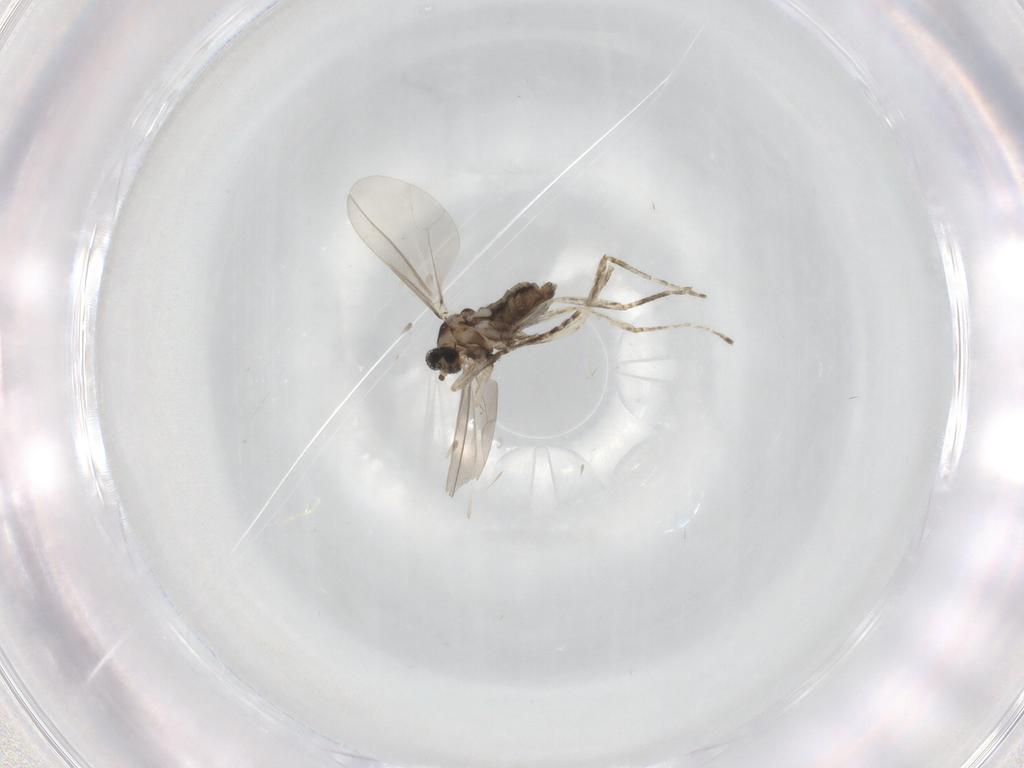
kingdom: Animalia
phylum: Arthropoda
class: Insecta
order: Diptera
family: Cecidomyiidae
